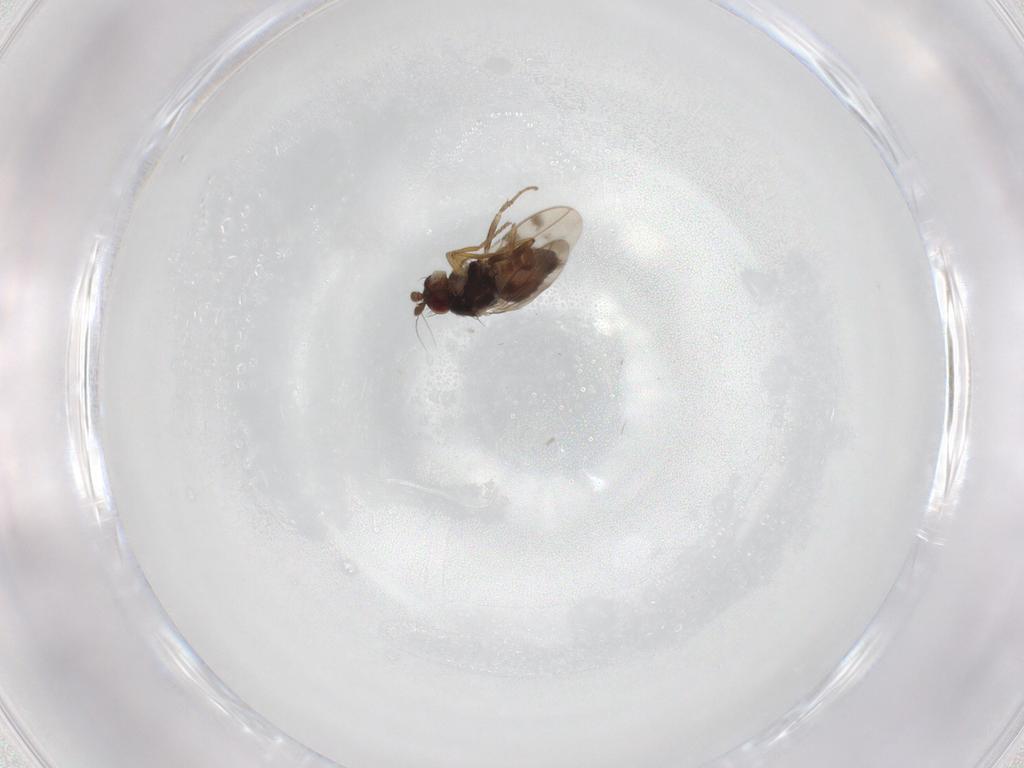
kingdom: Animalia
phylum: Arthropoda
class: Insecta
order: Diptera
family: Sphaeroceridae
